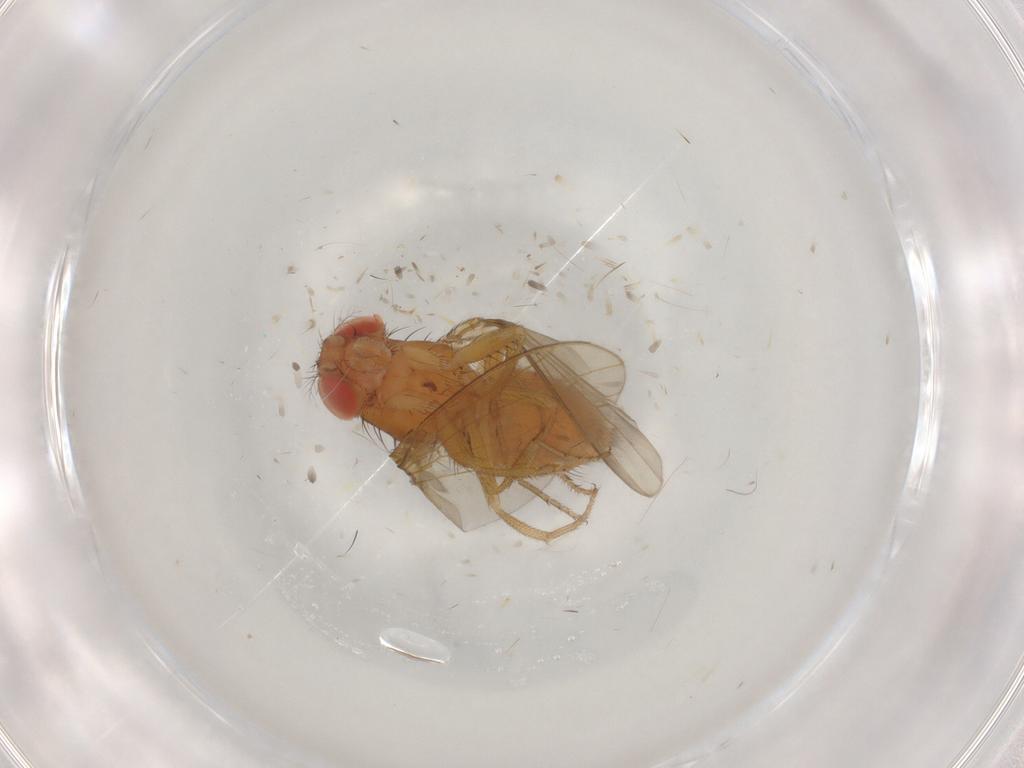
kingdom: Animalia
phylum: Arthropoda
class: Insecta
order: Diptera
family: Drosophilidae
